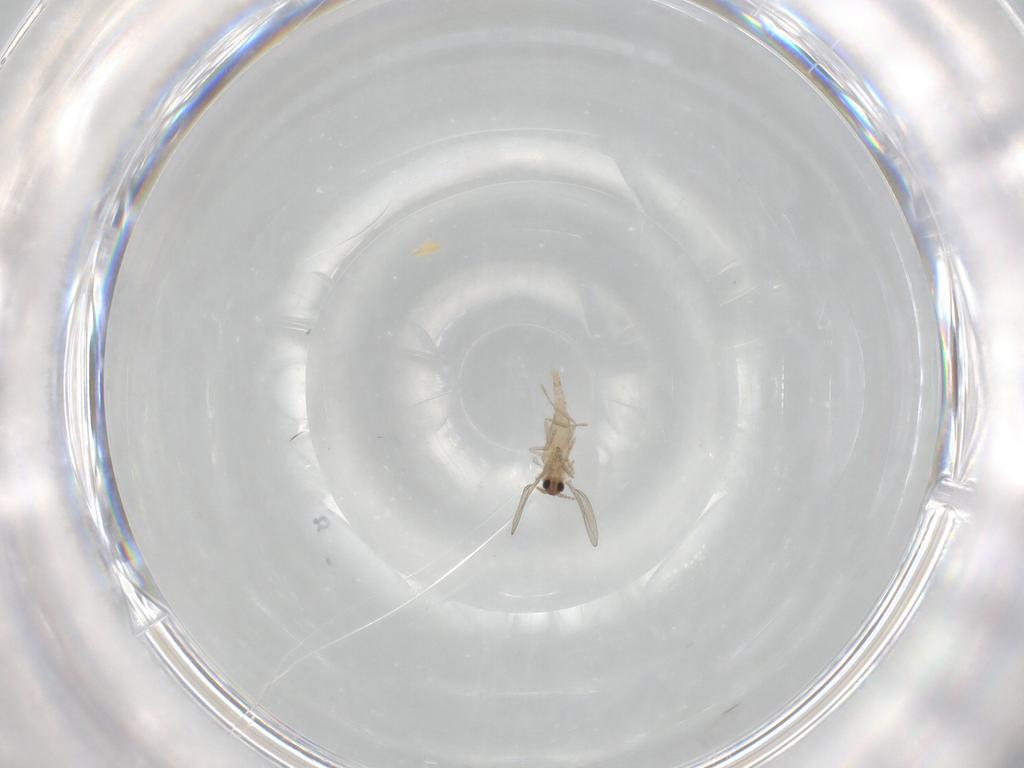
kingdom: Animalia
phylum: Arthropoda
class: Insecta
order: Diptera
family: Cecidomyiidae
